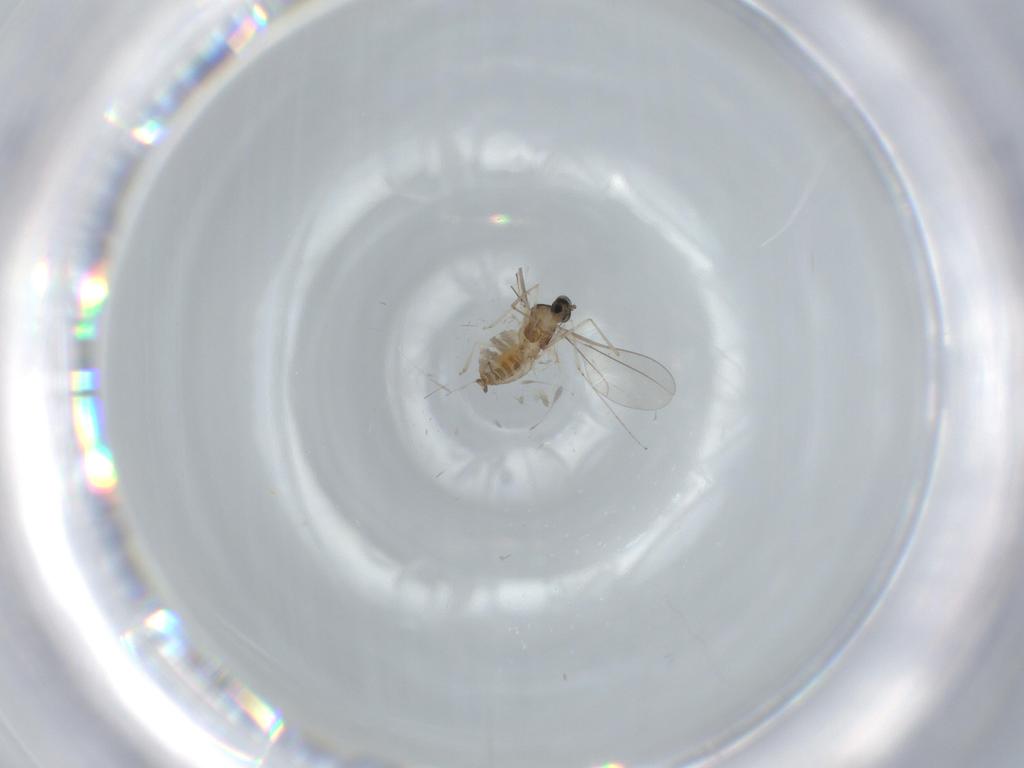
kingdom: Animalia
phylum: Arthropoda
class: Insecta
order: Diptera
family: Cecidomyiidae
